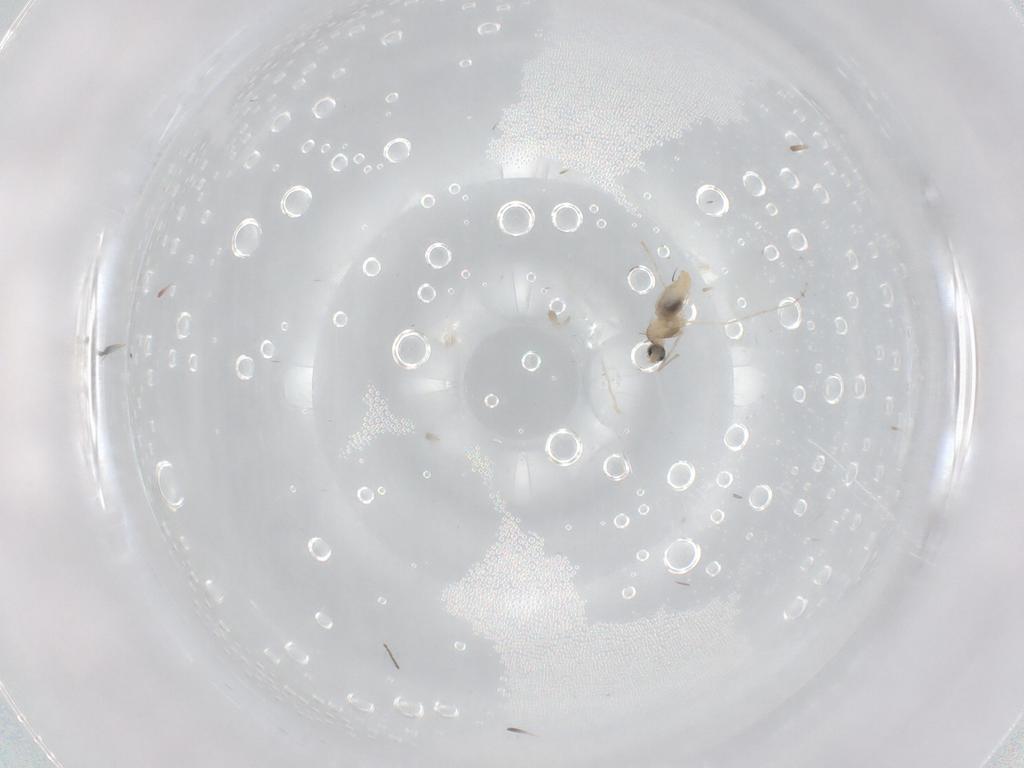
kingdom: Animalia
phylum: Arthropoda
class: Insecta
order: Diptera
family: Cecidomyiidae
